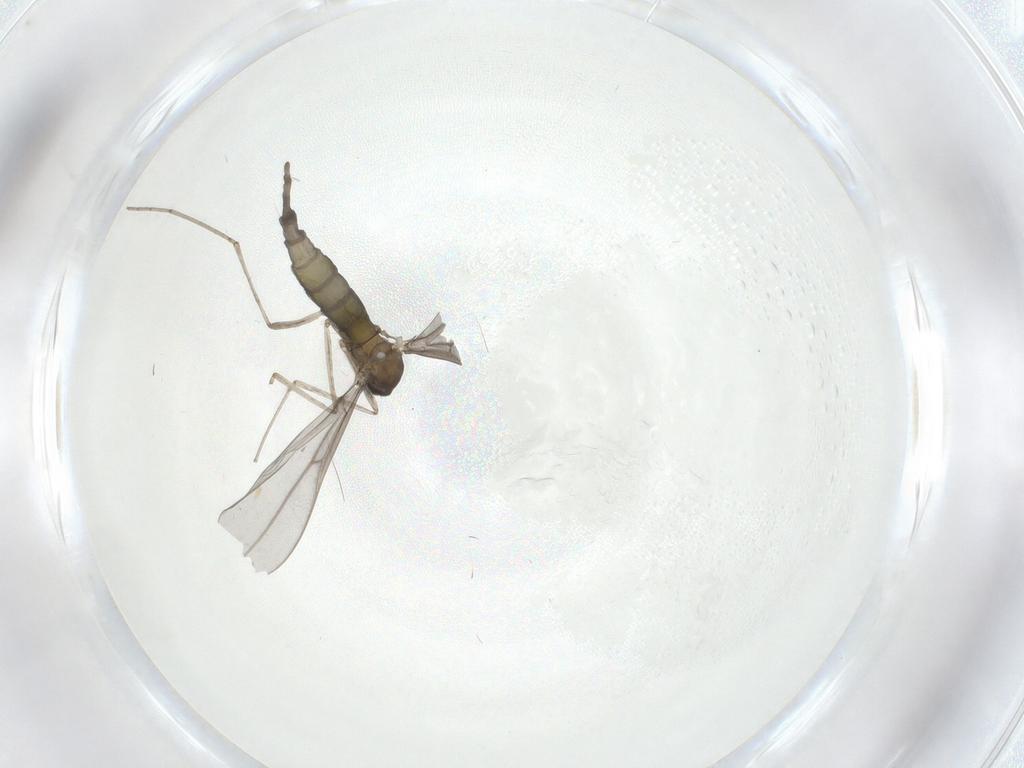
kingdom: Animalia
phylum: Arthropoda
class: Insecta
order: Diptera
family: Cecidomyiidae
